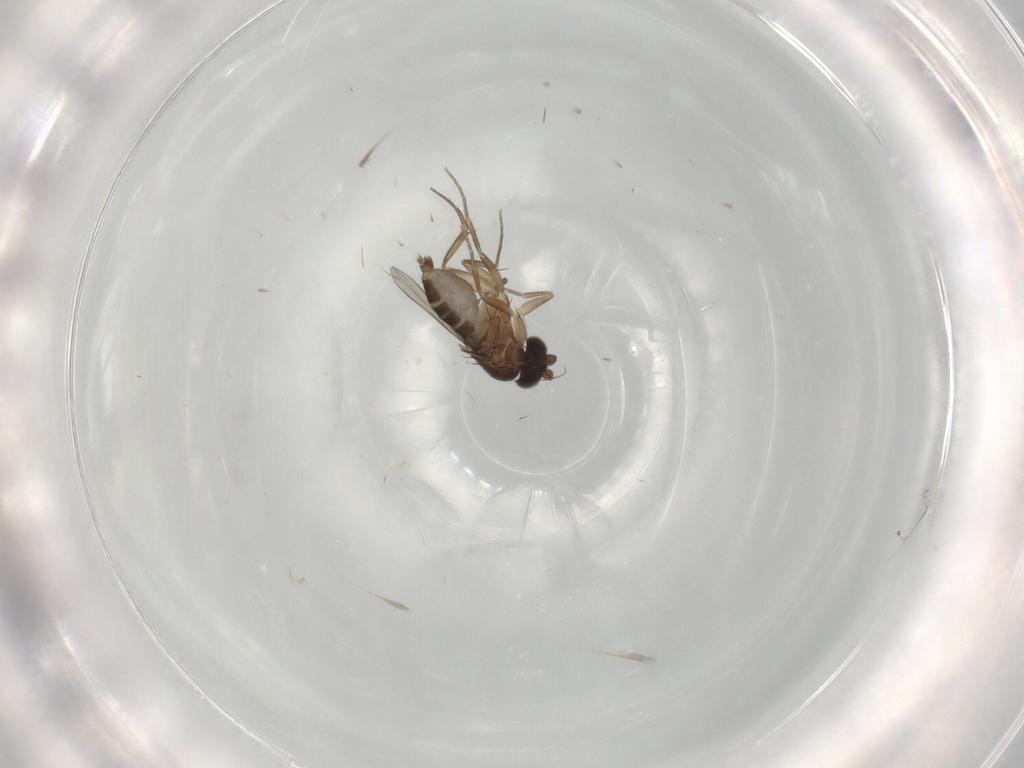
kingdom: Animalia
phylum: Arthropoda
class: Insecta
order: Diptera
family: Phoridae
